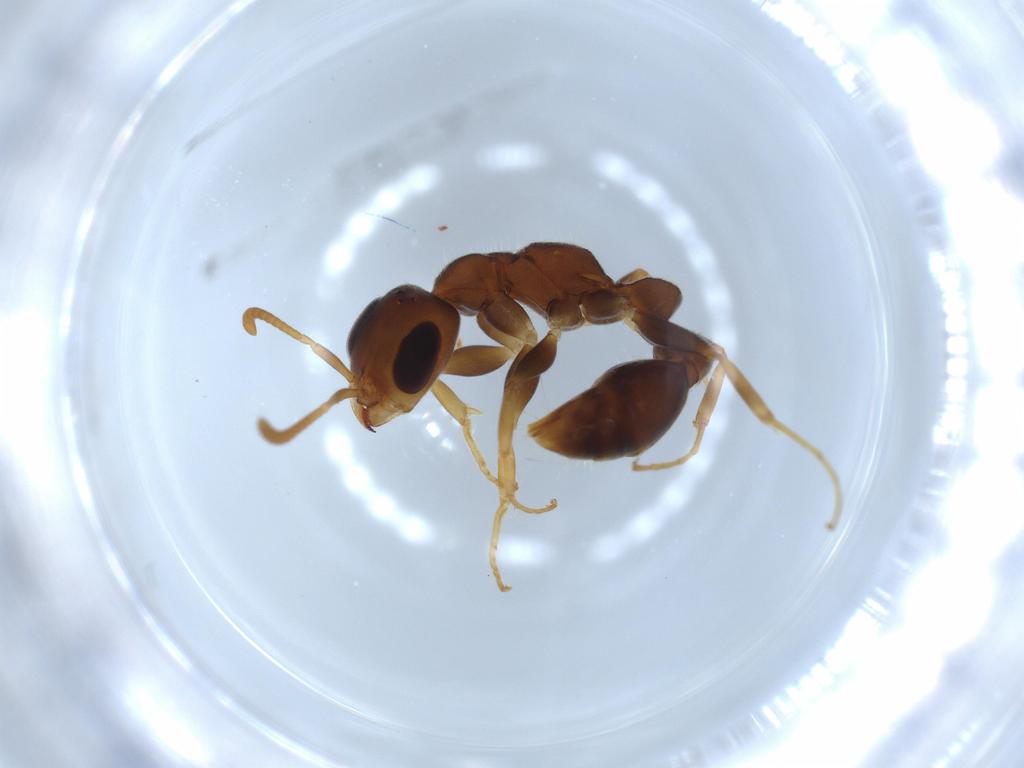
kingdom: Animalia
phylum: Arthropoda
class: Insecta
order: Hymenoptera
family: Formicidae
